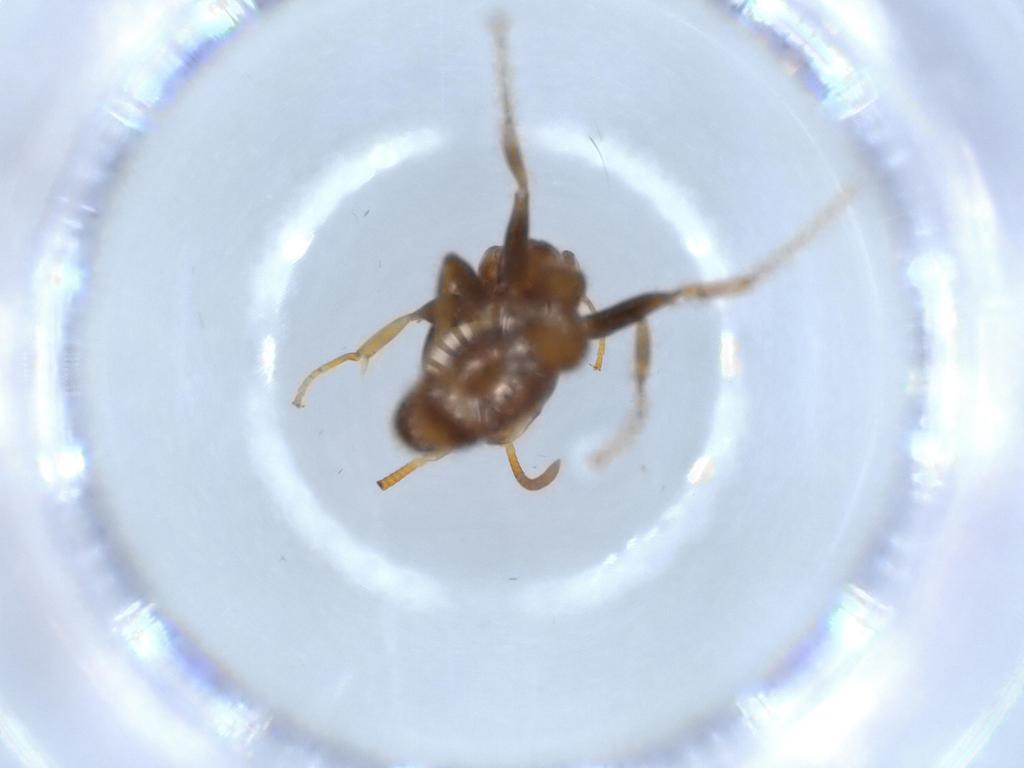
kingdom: Animalia
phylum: Arthropoda
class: Insecta
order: Hymenoptera
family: Formicidae
